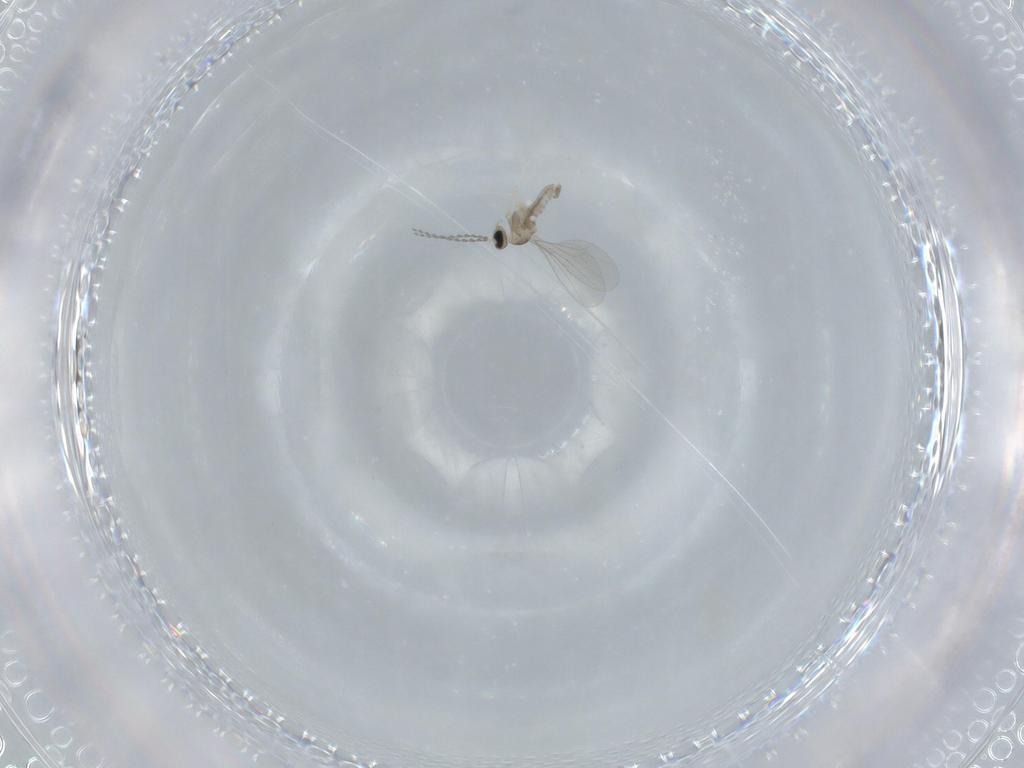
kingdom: Animalia
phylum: Arthropoda
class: Insecta
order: Diptera
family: Cecidomyiidae
